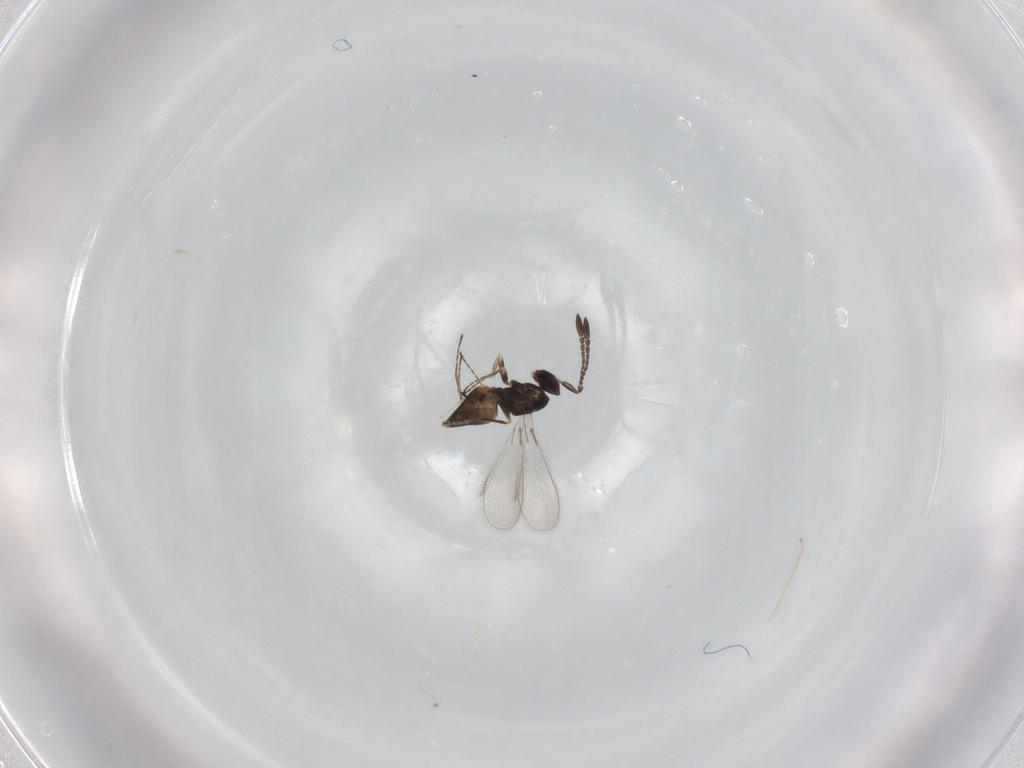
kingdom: Animalia
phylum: Arthropoda
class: Insecta
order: Hymenoptera
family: Mymaridae
